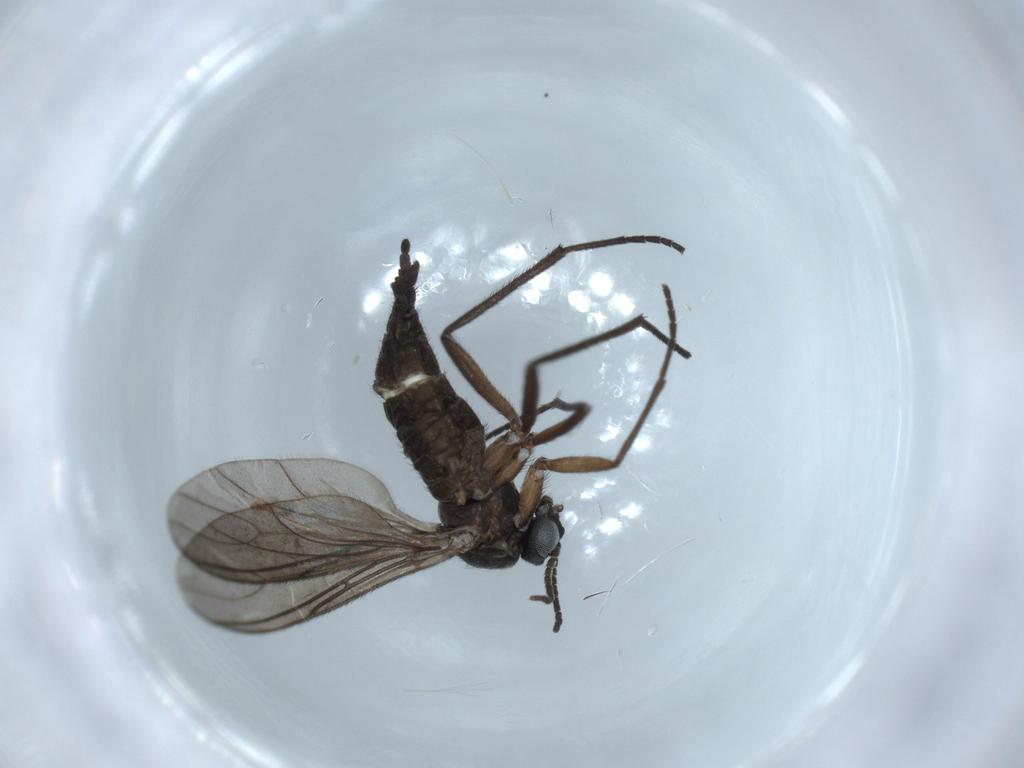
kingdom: Animalia
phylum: Arthropoda
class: Insecta
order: Diptera
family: Sciaridae
